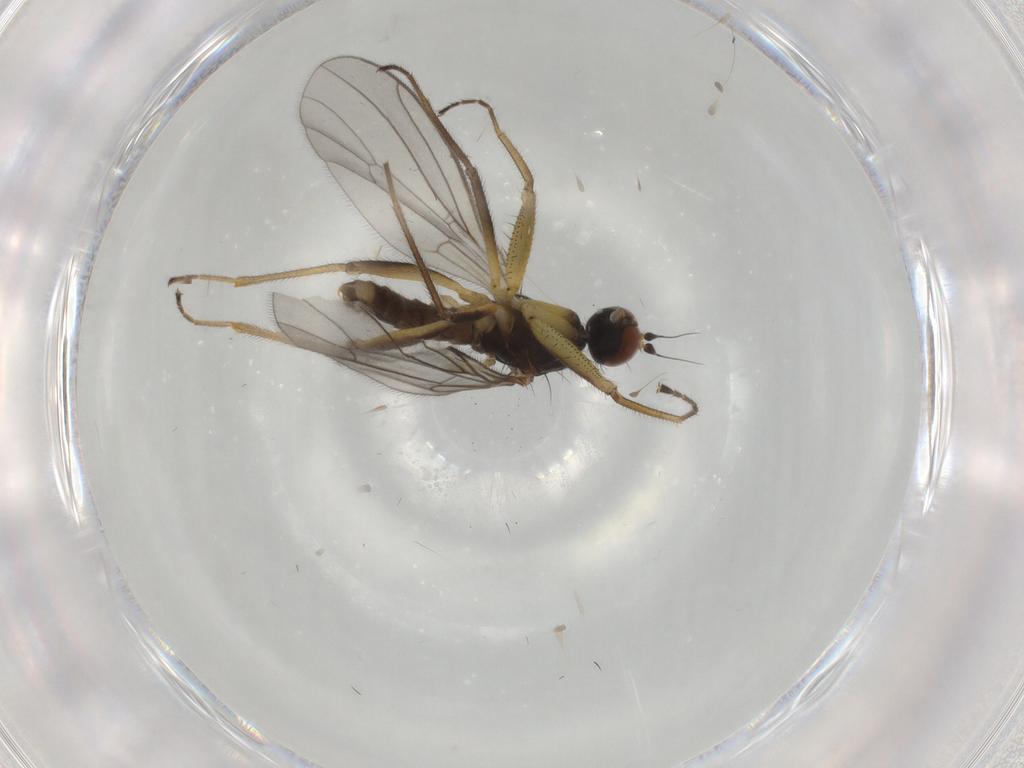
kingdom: Animalia
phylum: Arthropoda
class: Insecta
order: Diptera
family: Empididae
